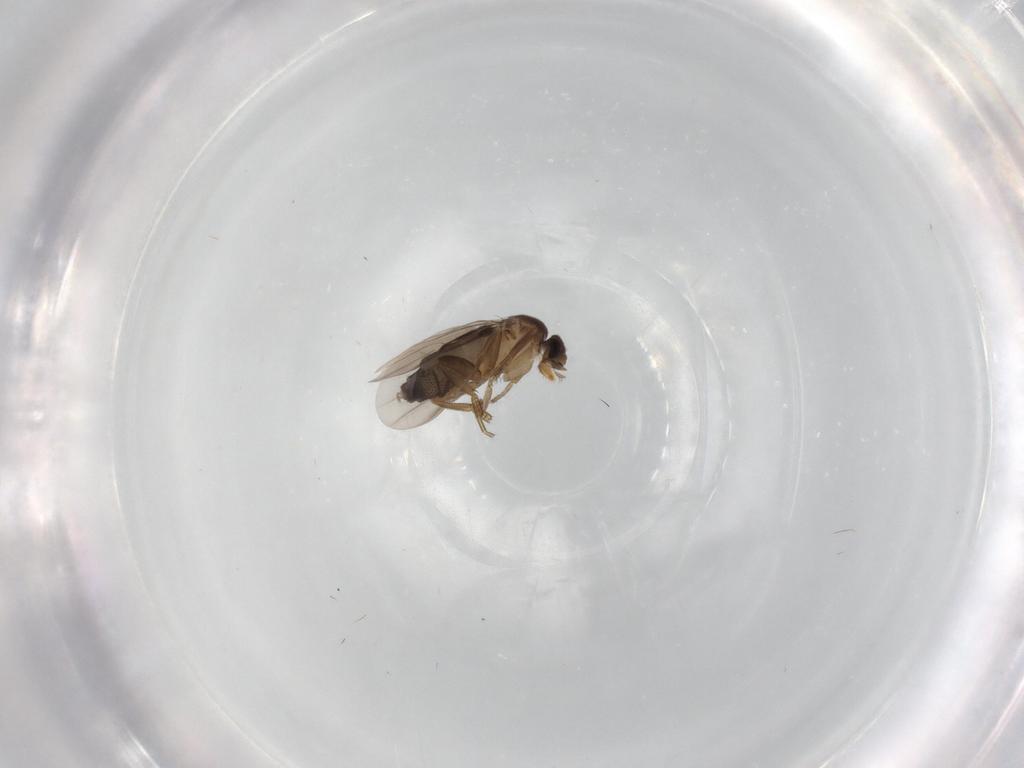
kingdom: Animalia
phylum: Arthropoda
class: Insecta
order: Diptera
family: Phoridae
